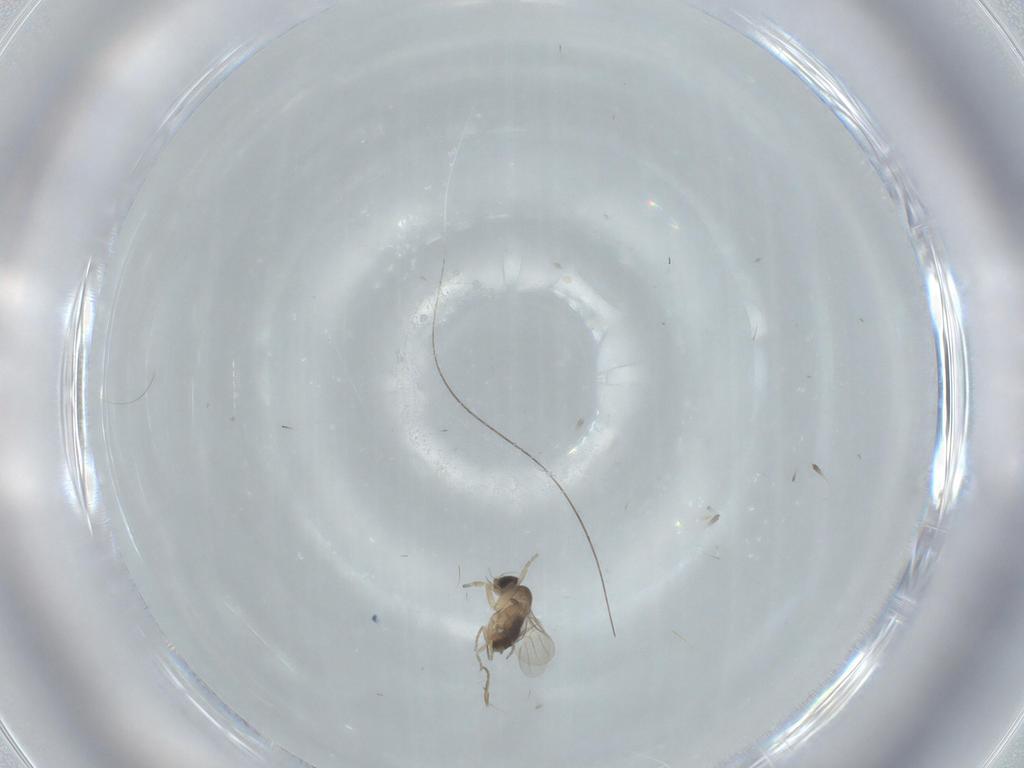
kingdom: Animalia
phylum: Arthropoda
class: Insecta
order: Diptera
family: Phoridae
